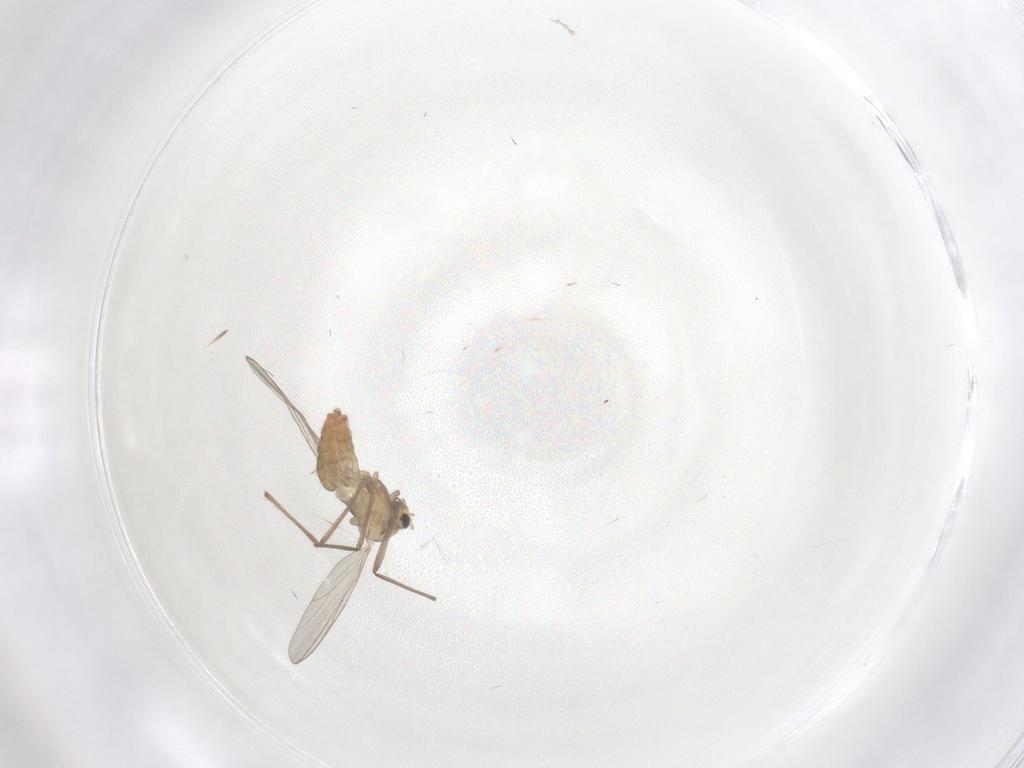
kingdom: Animalia
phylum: Arthropoda
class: Insecta
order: Diptera
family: Chironomidae
